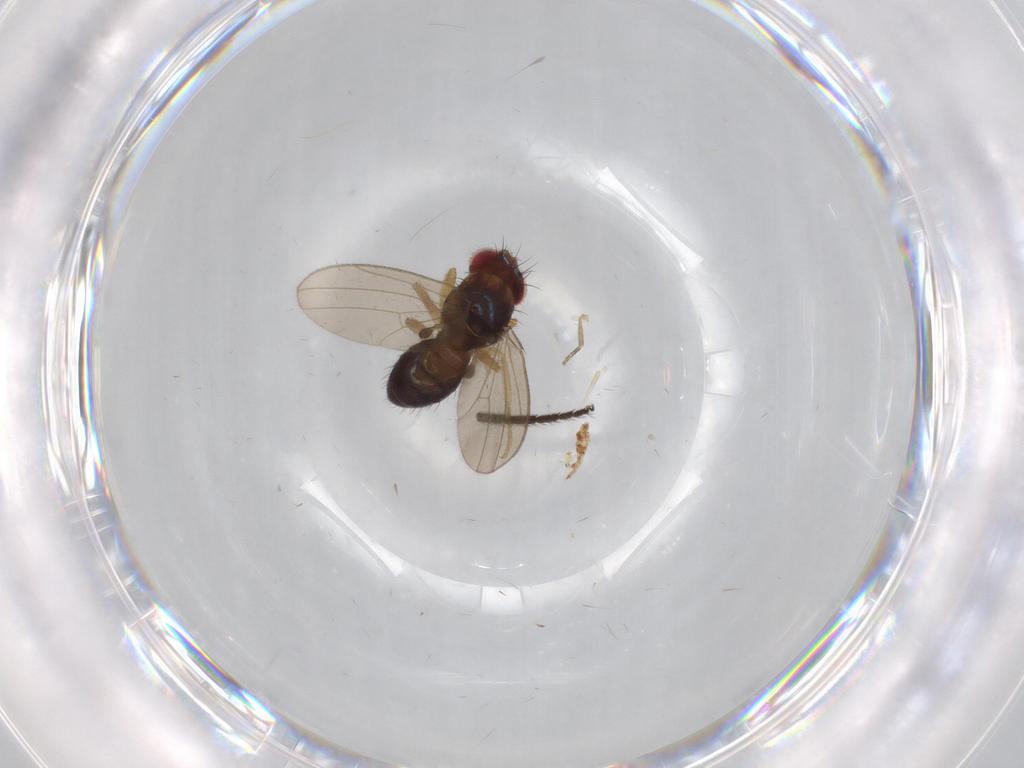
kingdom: Animalia
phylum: Arthropoda
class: Insecta
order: Diptera
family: Drosophilidae
